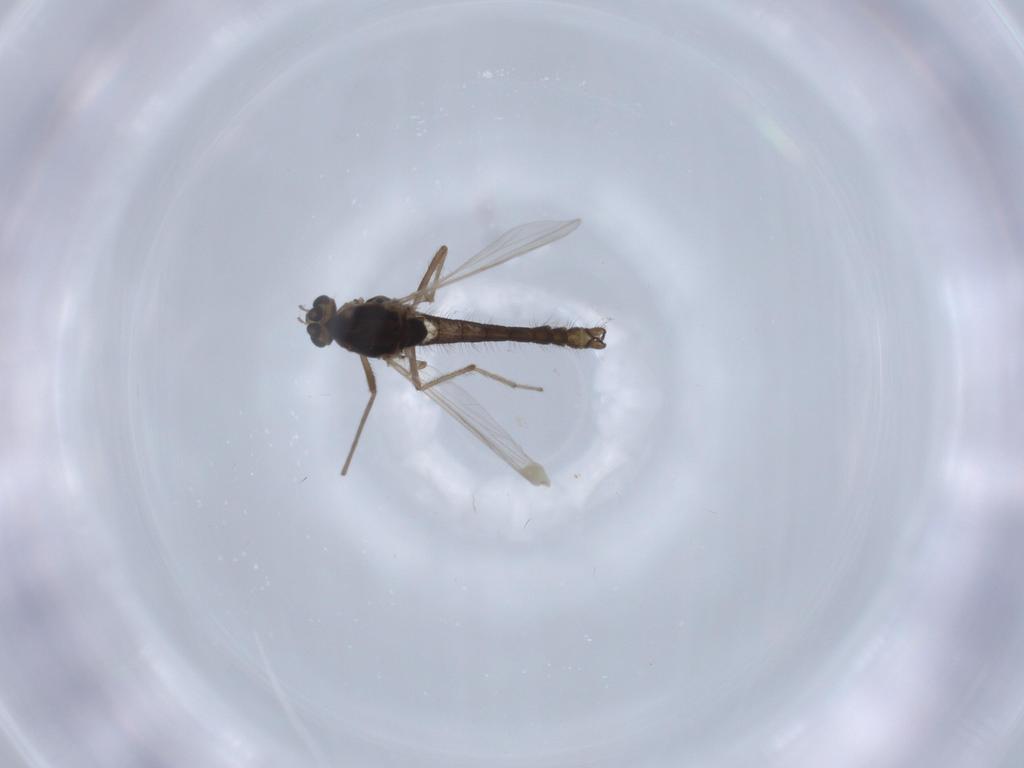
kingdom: Animalia
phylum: Arthropoda
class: Insecta
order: Diptera
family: Chironomidae
